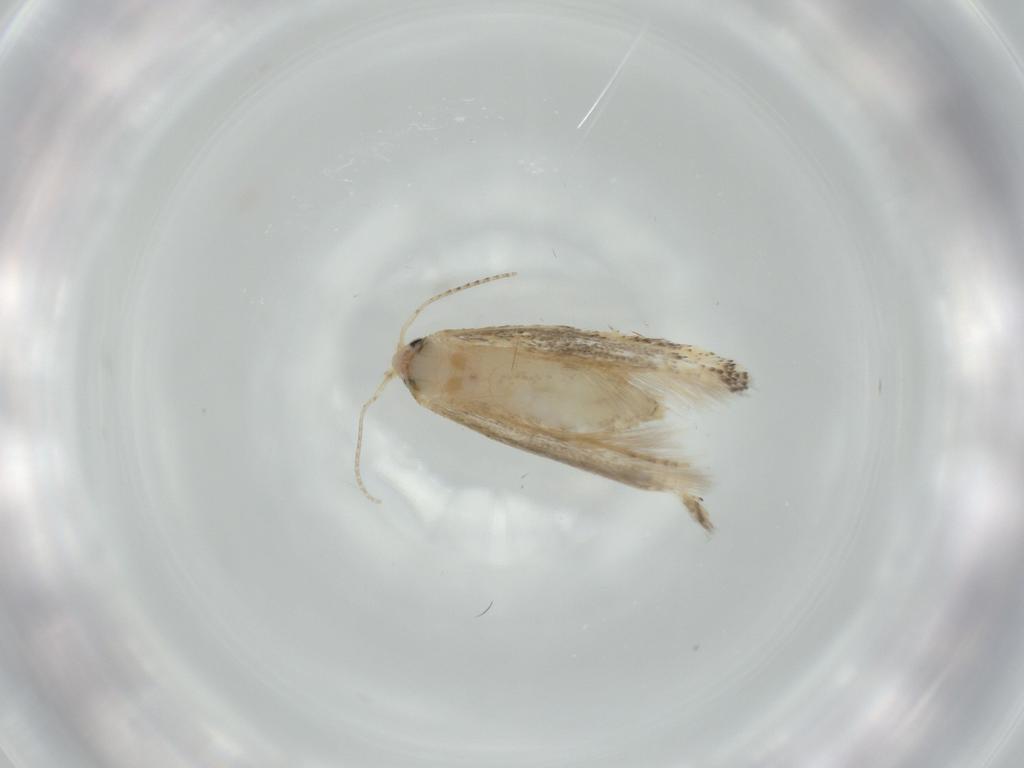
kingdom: Animalia
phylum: Arthropoda
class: Insecta
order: Lepidoptera
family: Bucculatricidae
